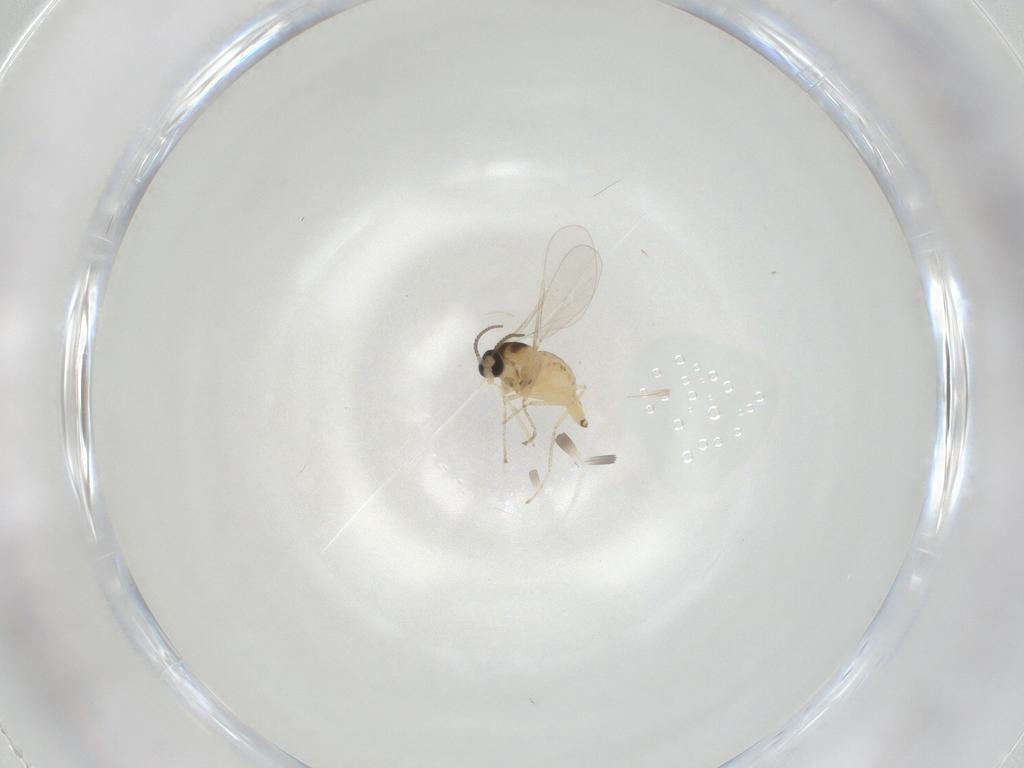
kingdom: Animalia
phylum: Arthropoda
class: Insecta
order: Diptera
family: Cecidomyiidae
